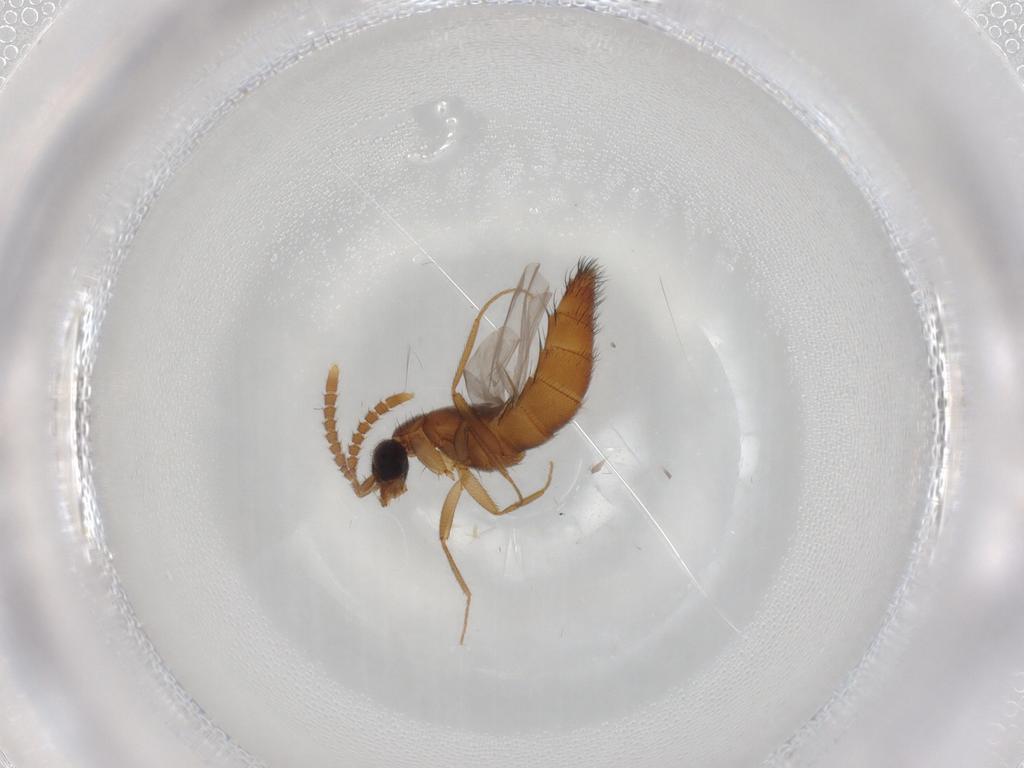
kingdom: Animalia
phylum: Arthropoda
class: Insecta
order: Coleoptera
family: Staphylinidae
